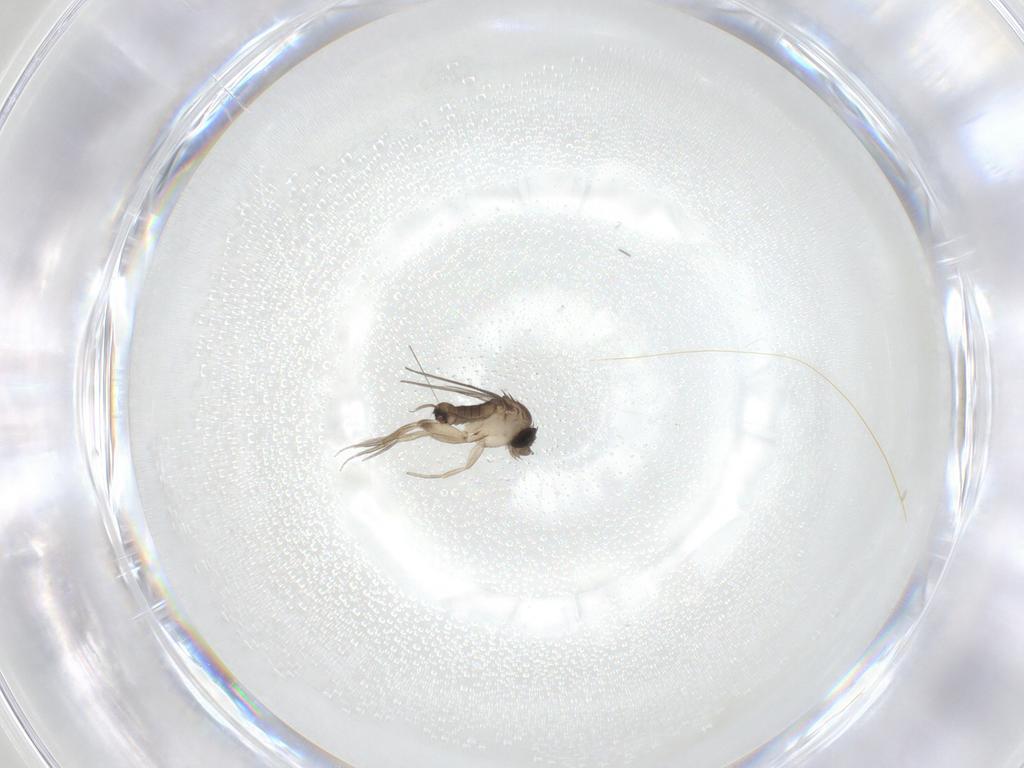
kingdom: Animalia
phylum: Arthropoda
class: Insecta
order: Diptera
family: Phoridae
